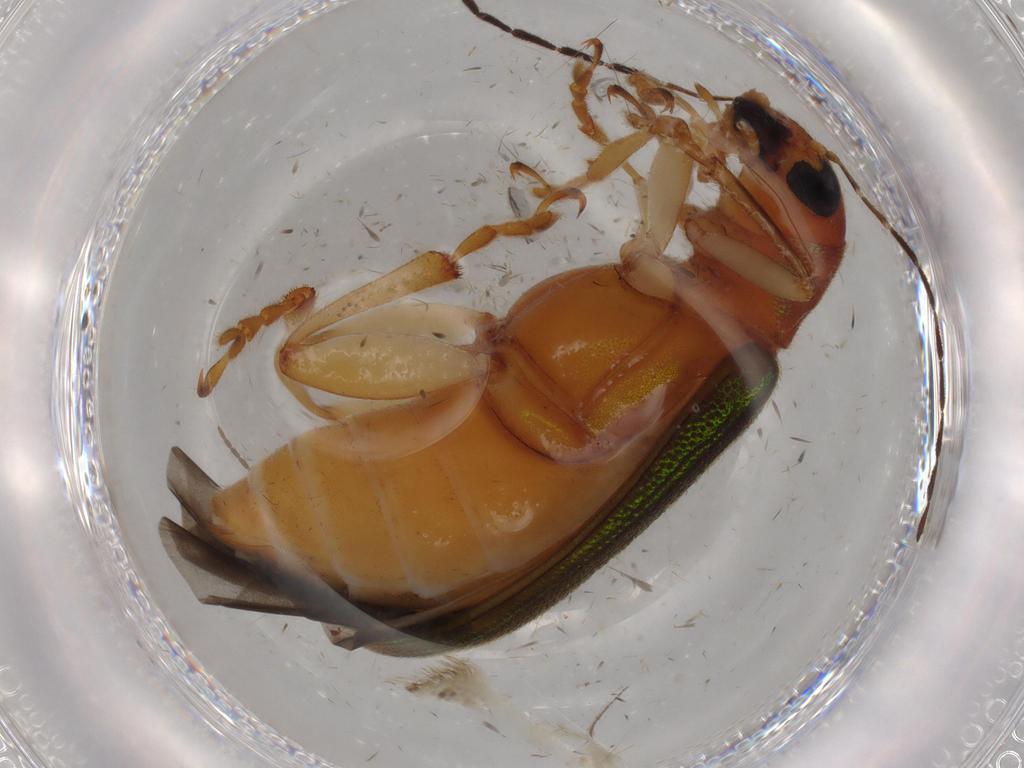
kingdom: Animalia
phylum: Arthropoda
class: Insecta
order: Coleoptera
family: Chrysomelidae
